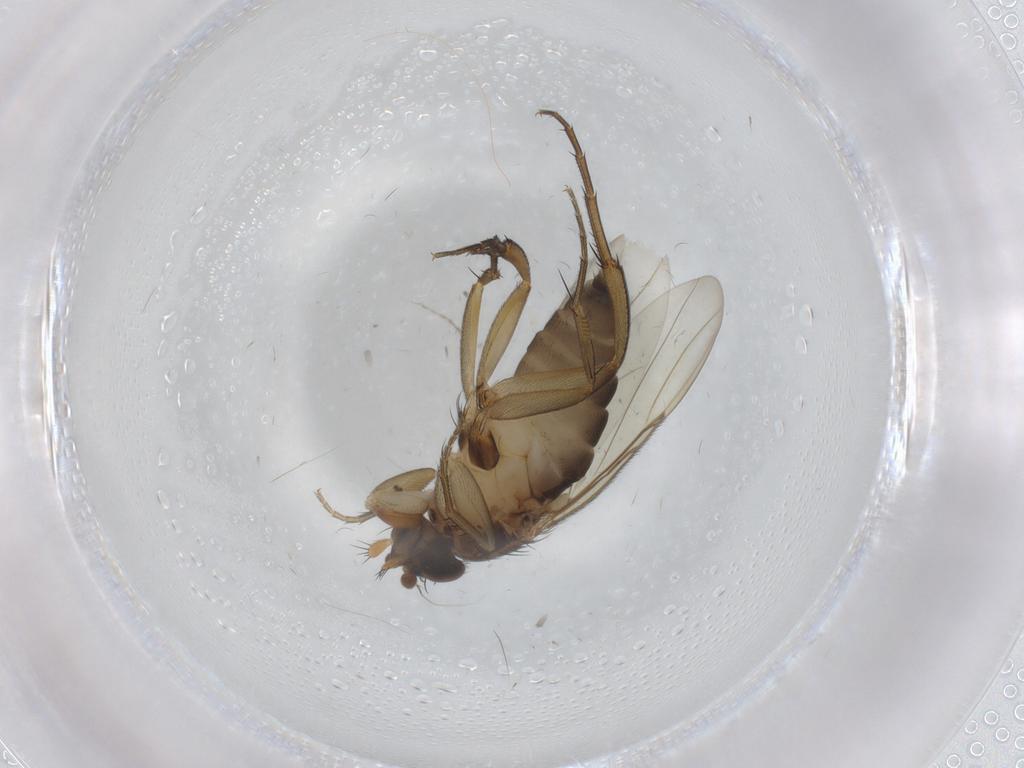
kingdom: Animalia
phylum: Arthropoda
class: Insecta
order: Diptera
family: Phoridae
